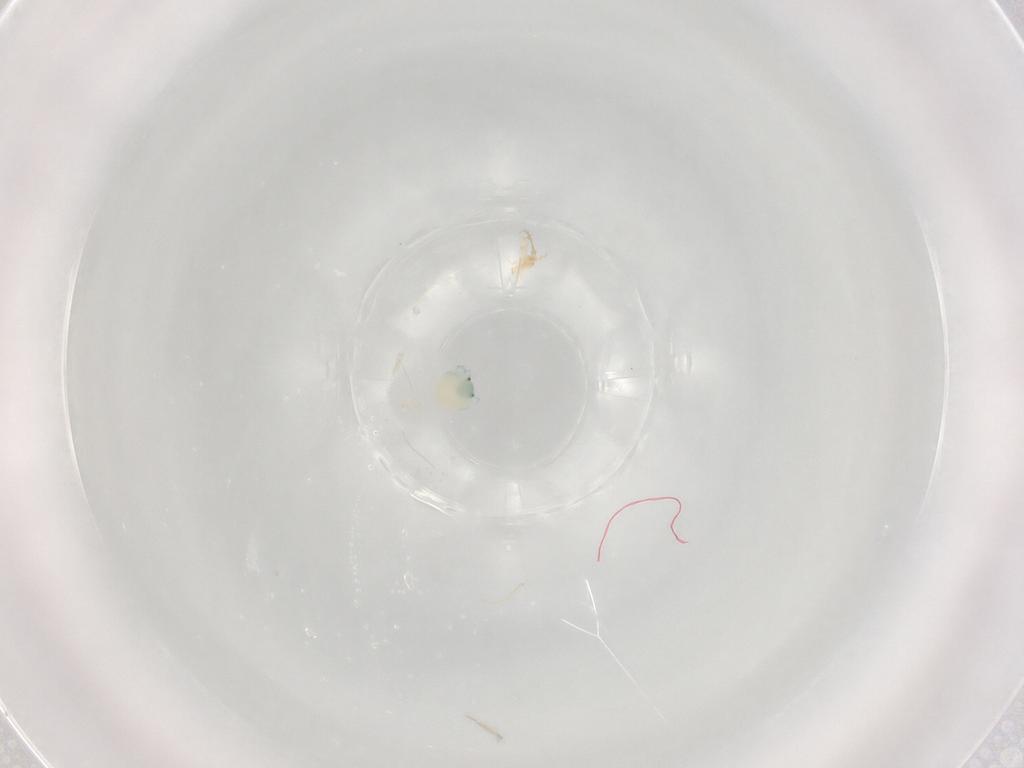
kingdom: Animalia
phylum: Arthropoda
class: Arachnida
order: Trombidiformes
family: Arrenuridae
